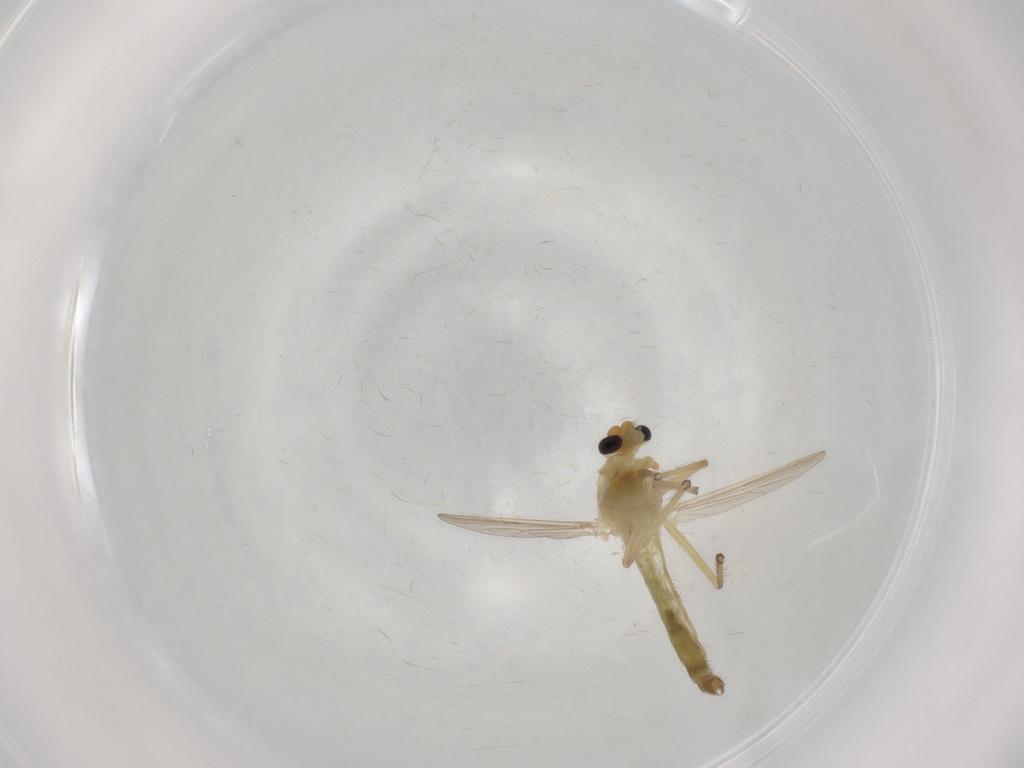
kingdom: Animalia
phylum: Arthropoda
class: Insecta
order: Diptera
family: Chironomidae
